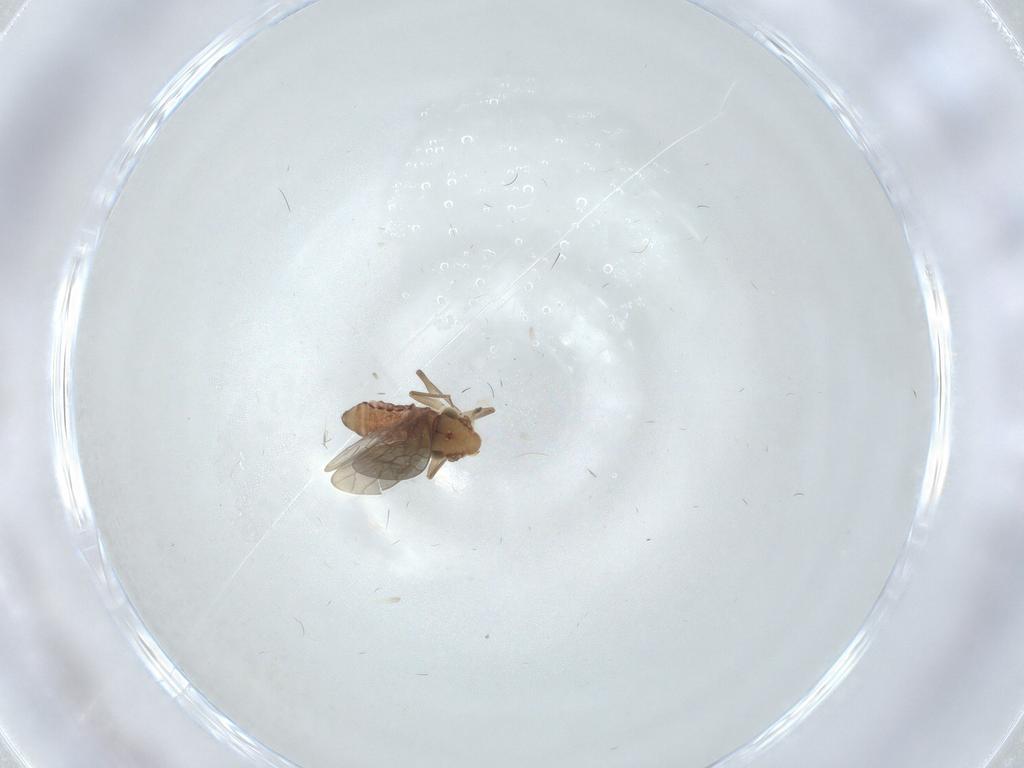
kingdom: Animalia
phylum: Arthropoda
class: Insecta
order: Psocodea
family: Lepidopsocidae
